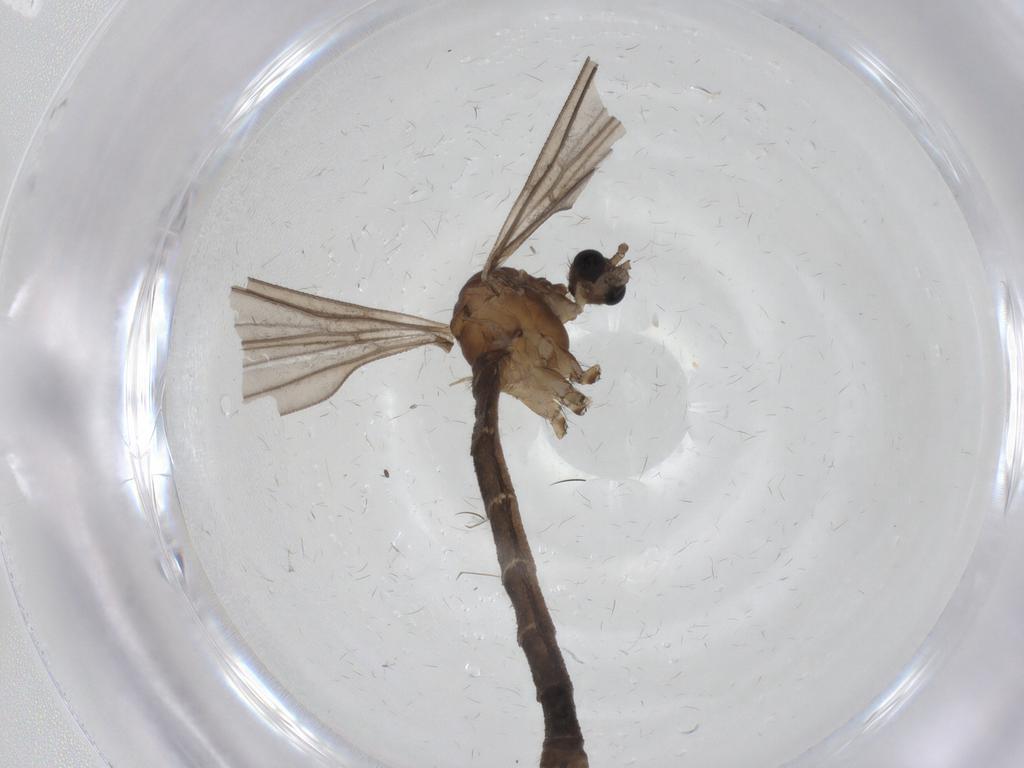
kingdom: Animalia
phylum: Arthropoda
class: Insecta
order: Diptera
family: Limoniidae
